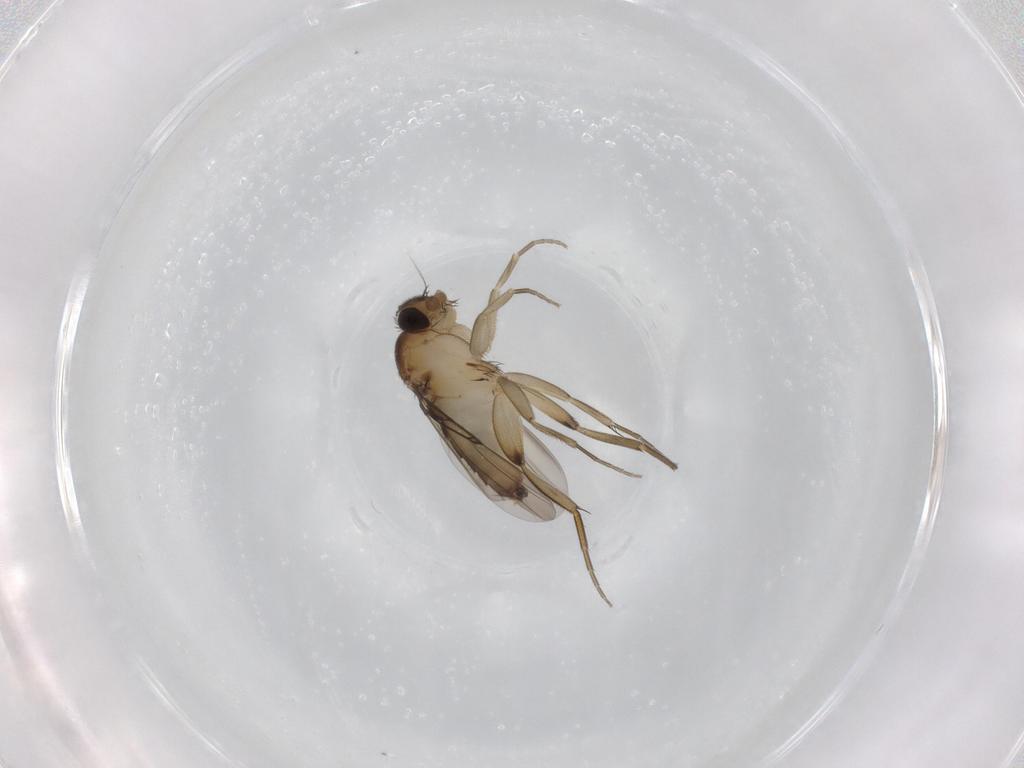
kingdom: Animalia
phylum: Arthropoda
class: Insecta
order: Diptera
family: Phoridae
